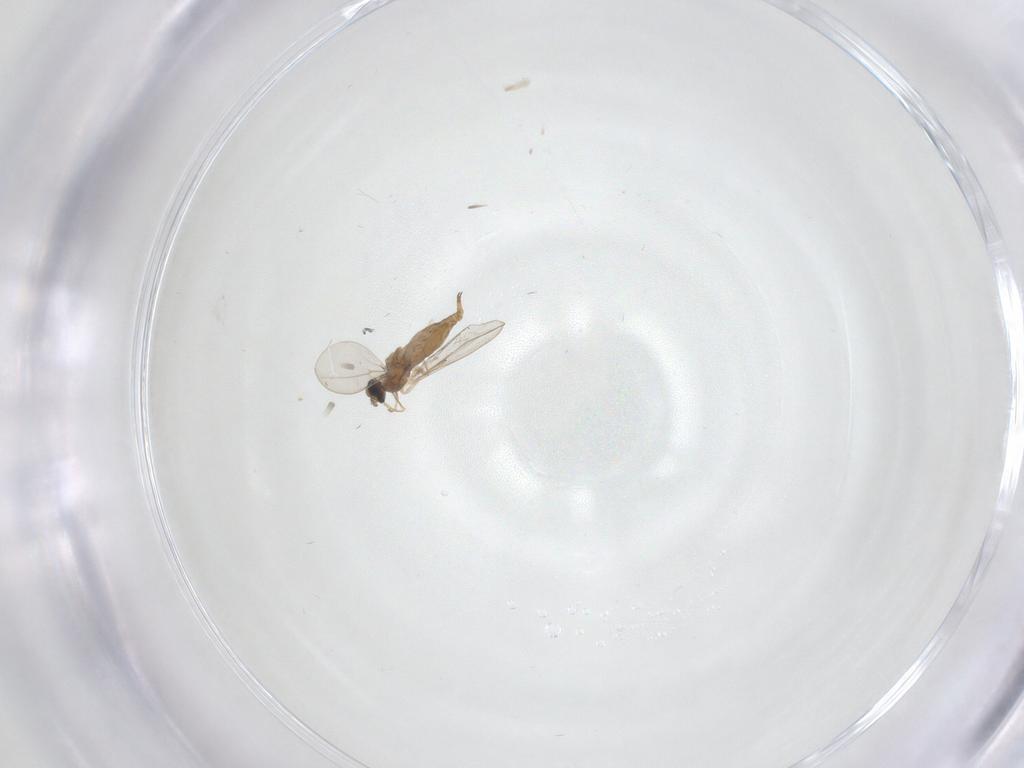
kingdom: Animalia
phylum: Arthropoda
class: Insecta
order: Diptera
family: Cecidomyiidae
